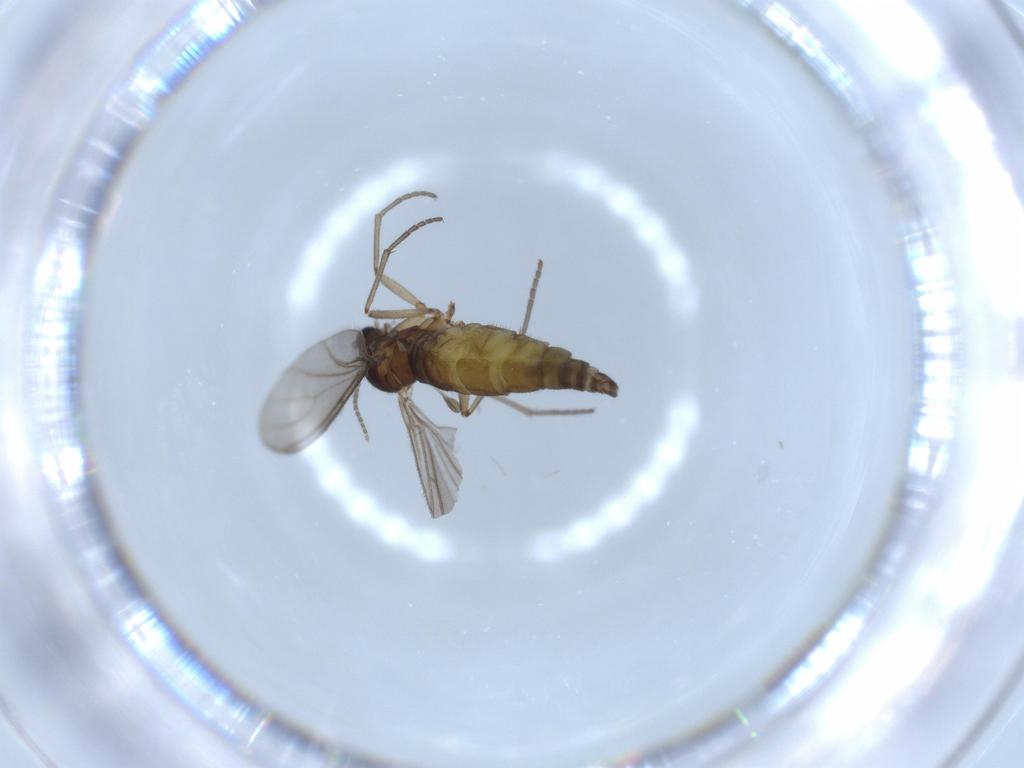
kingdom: Animalia
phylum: Arthropoda
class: Insecta
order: Diptera
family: Sciaridae
